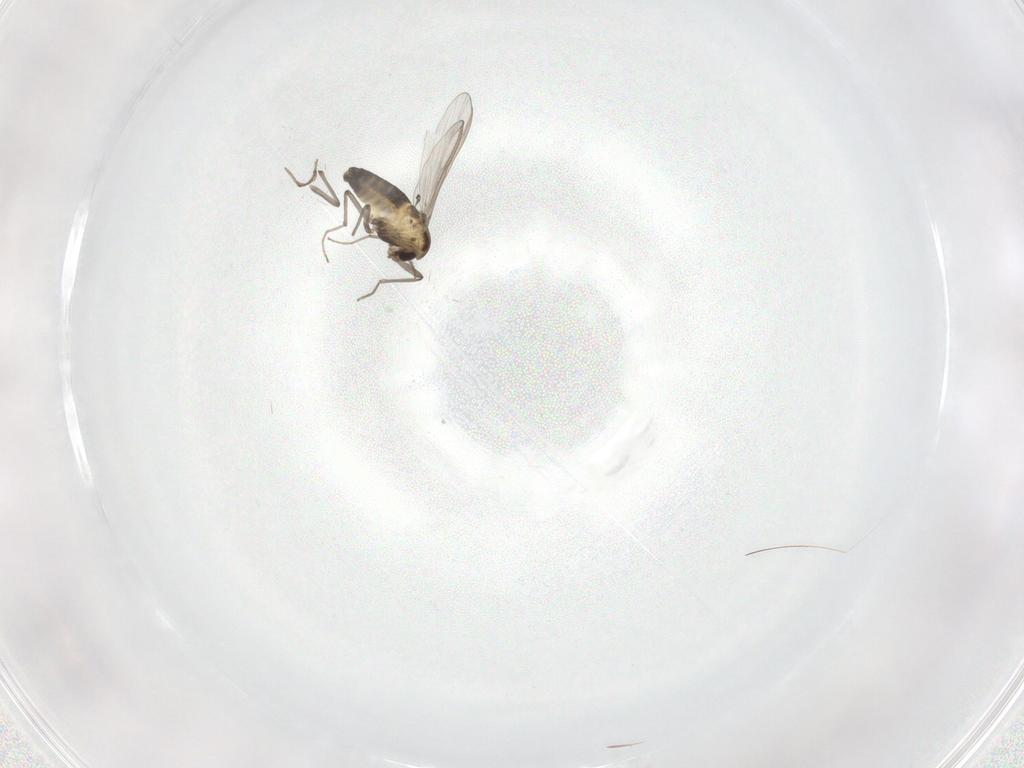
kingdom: Animalia
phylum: Arthropoda
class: Insecta
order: Diptera
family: Chironomidae
